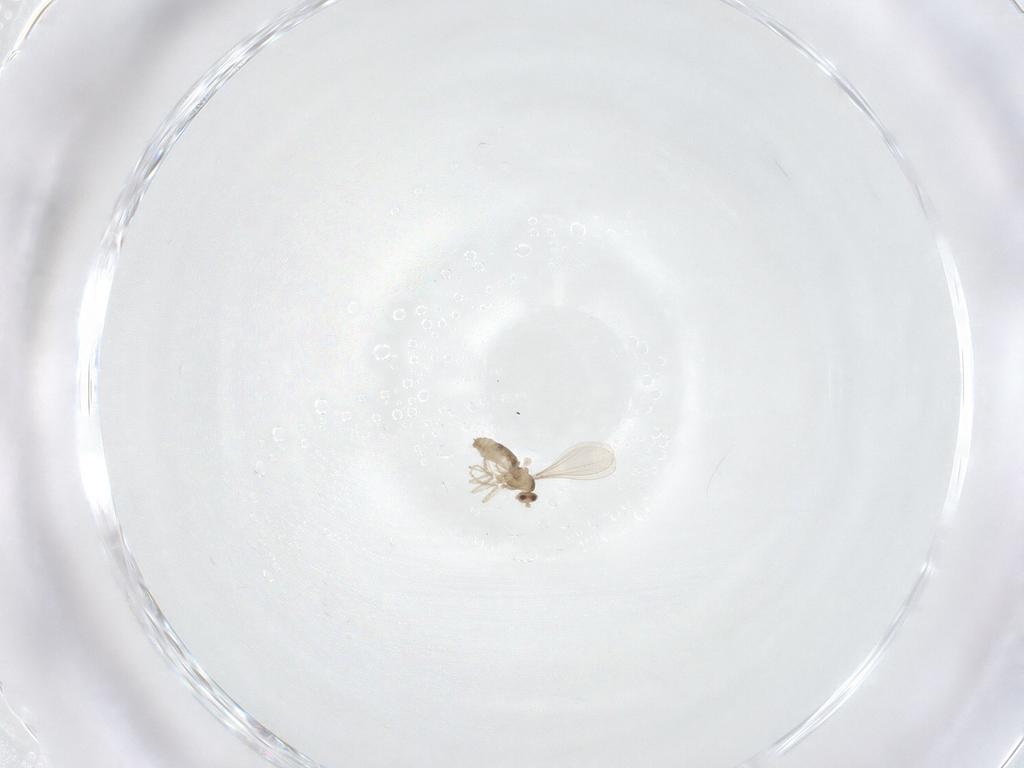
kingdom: Animalia
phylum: Arthropoda
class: Insecta
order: Diptera
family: Cecidomyiidae
